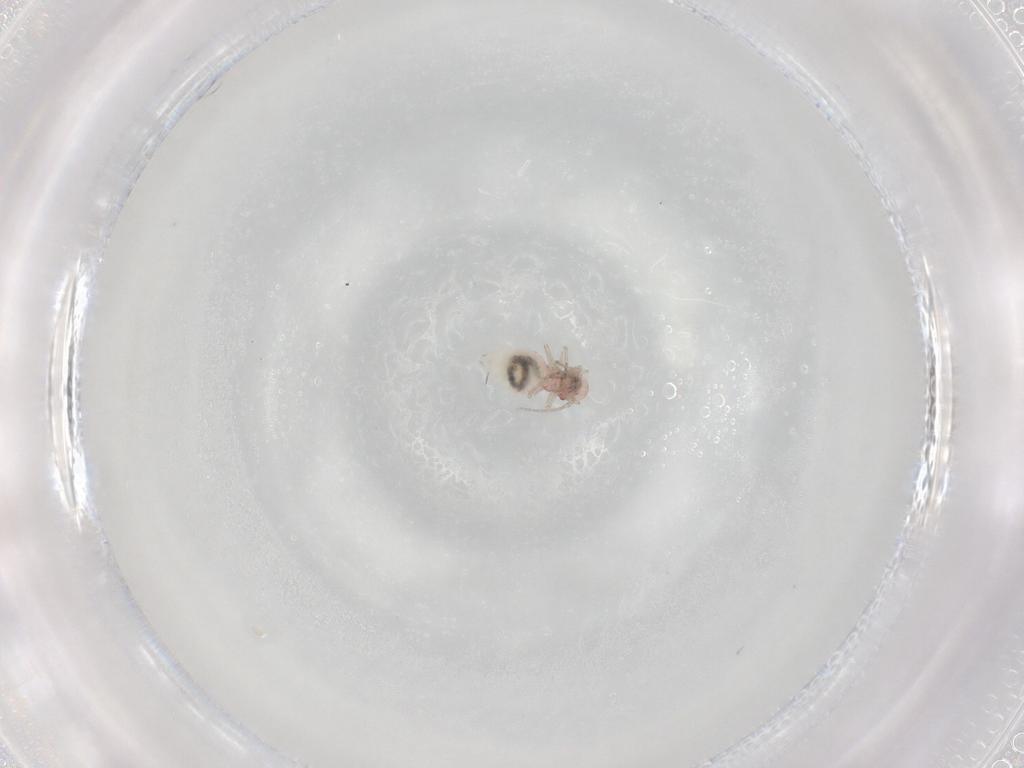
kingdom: Animalia
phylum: Arthropoda
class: Insecta
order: Psocodea
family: Caeciliusidae
